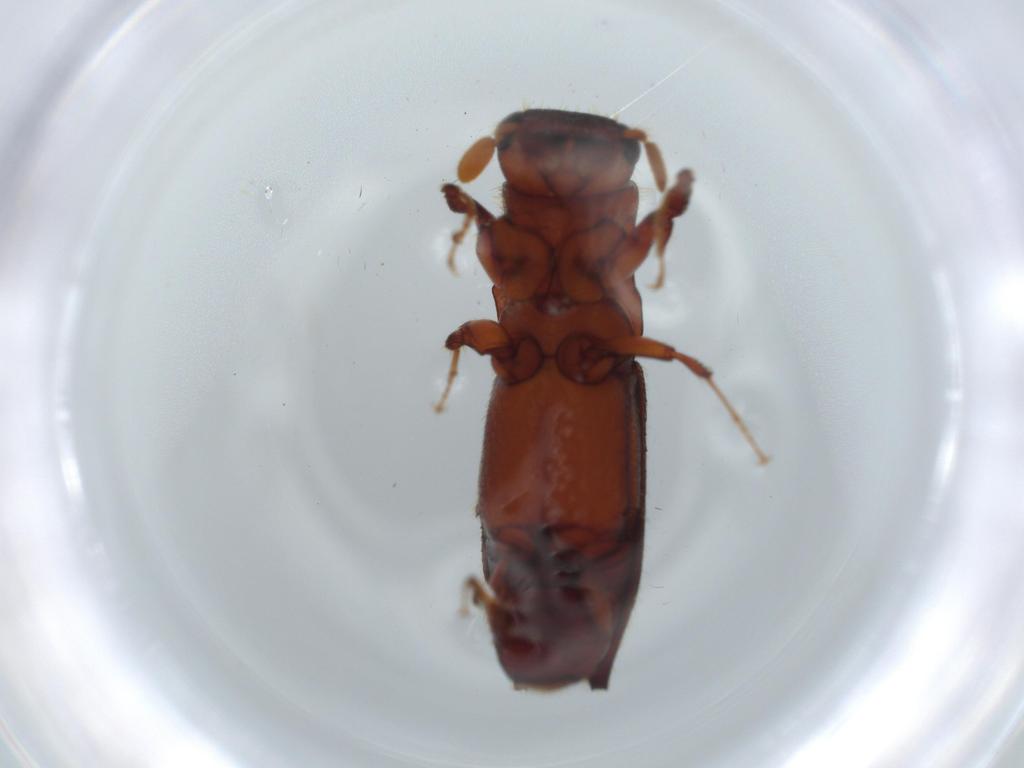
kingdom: Animalia
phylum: Arthropoda
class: Insecta
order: Coleoptera
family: Curculionidae
